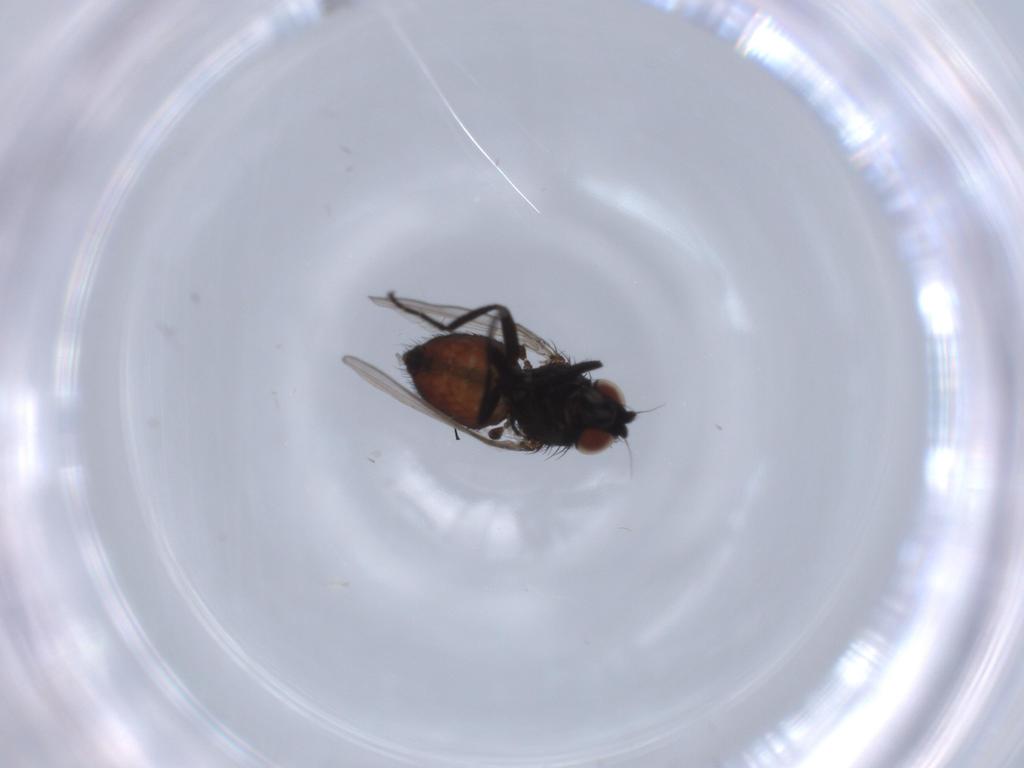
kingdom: Animalia
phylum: Arthropoda
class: Insecta
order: Diptera
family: Milichiidae
